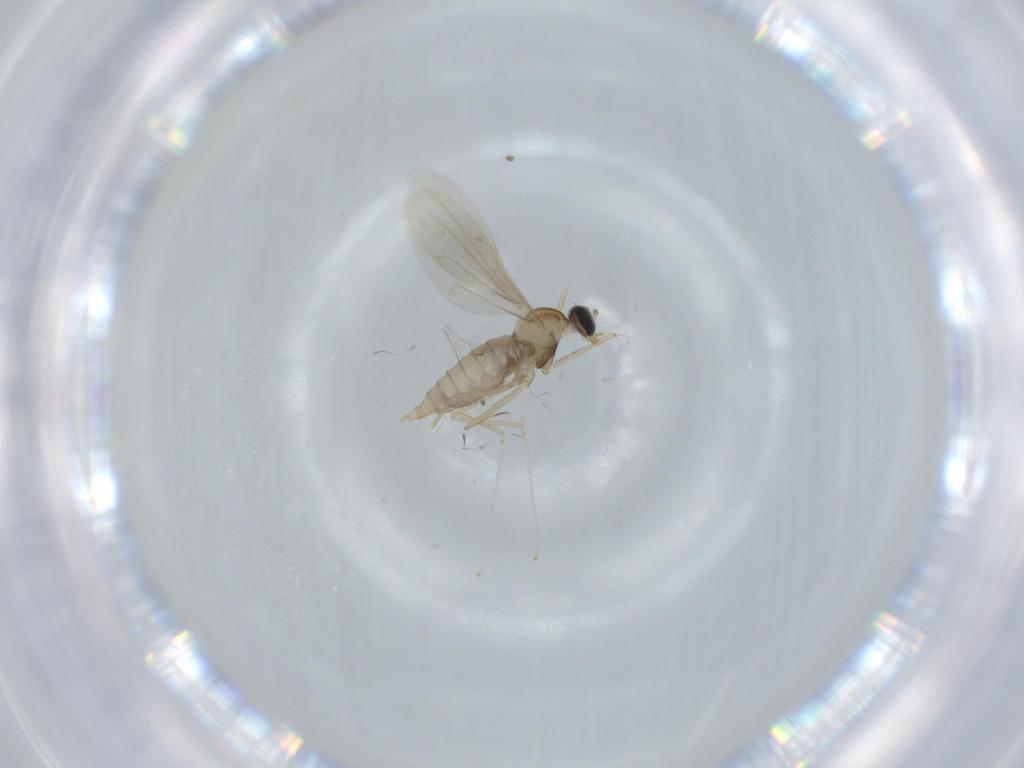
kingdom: Animalia
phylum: Arthropoda
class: Insecta
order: Diptera
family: Cecidomyiidae
